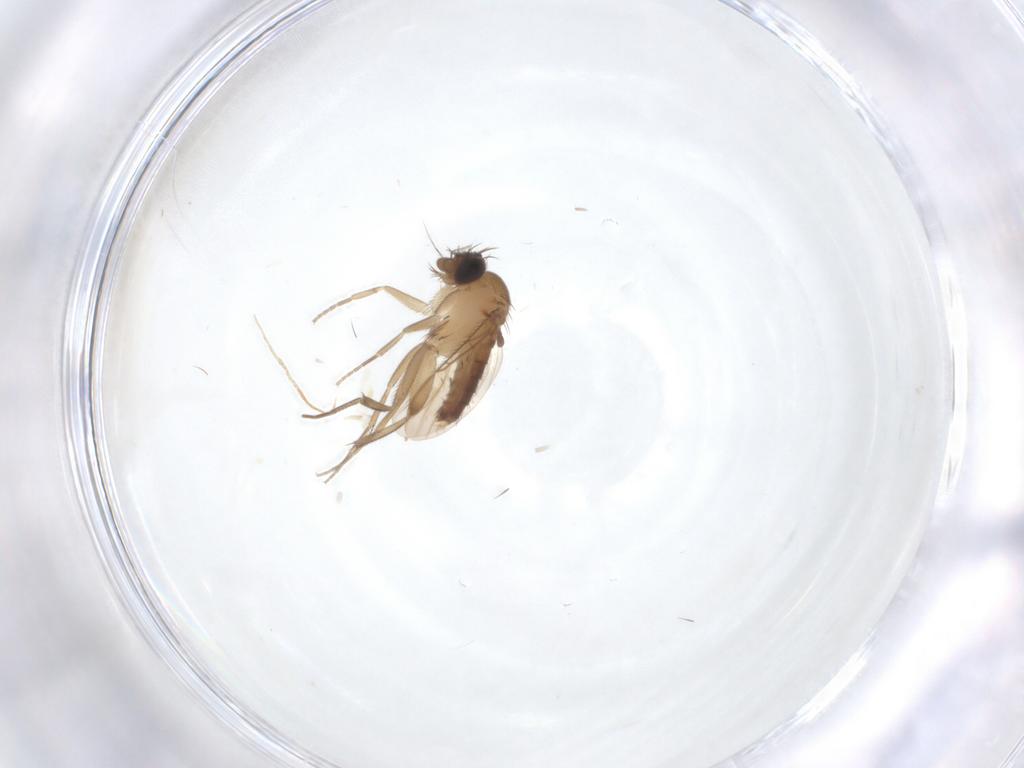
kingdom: Animalia
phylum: Arthropoda
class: Insecta
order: Diptera
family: Phoridae
